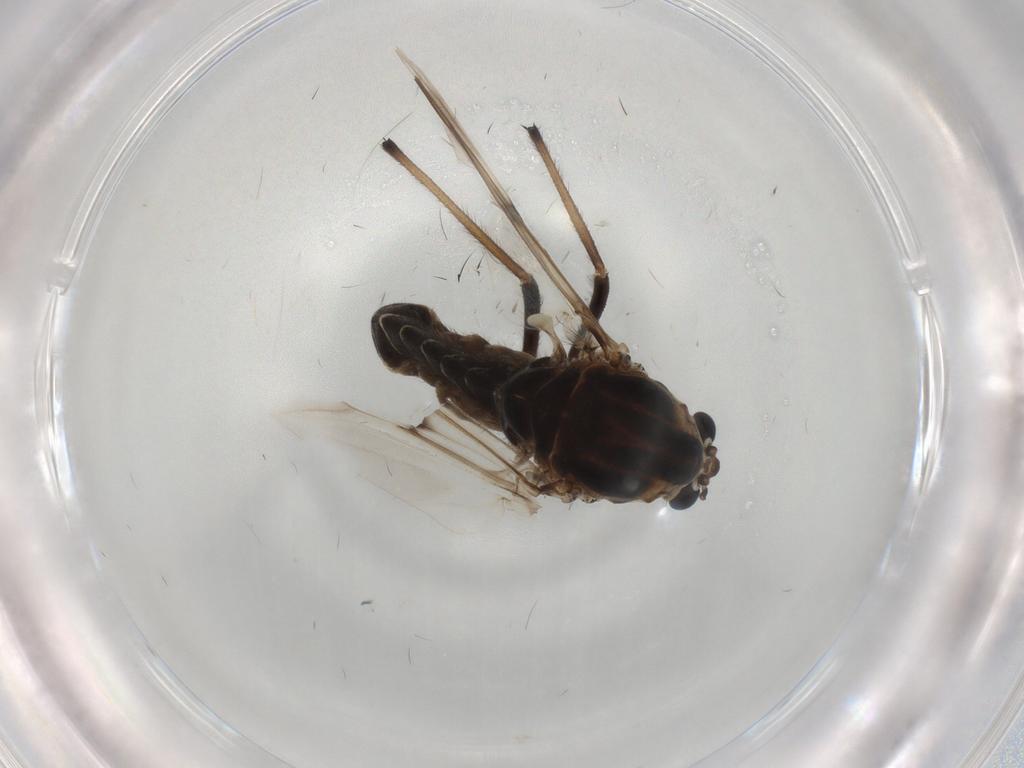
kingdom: Animalia
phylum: Arthropoda
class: Insecta
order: Diptera
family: Chironomidae
